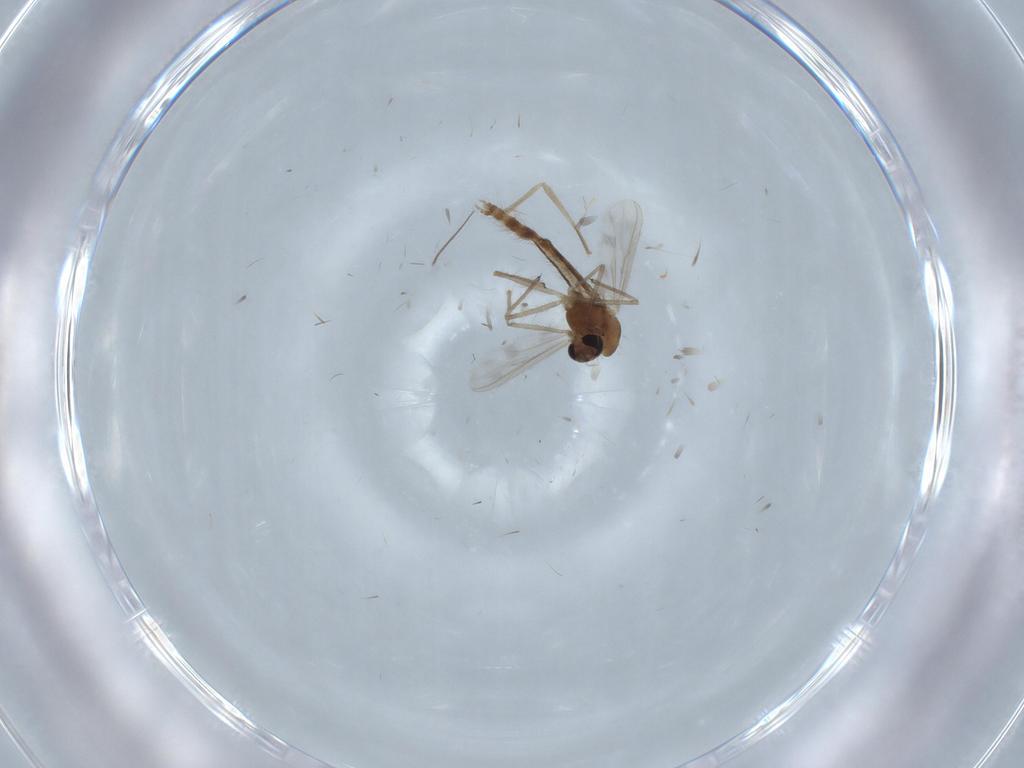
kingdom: Animalia
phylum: Arthropoda
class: Insecta
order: Diptera
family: Chironomidae
